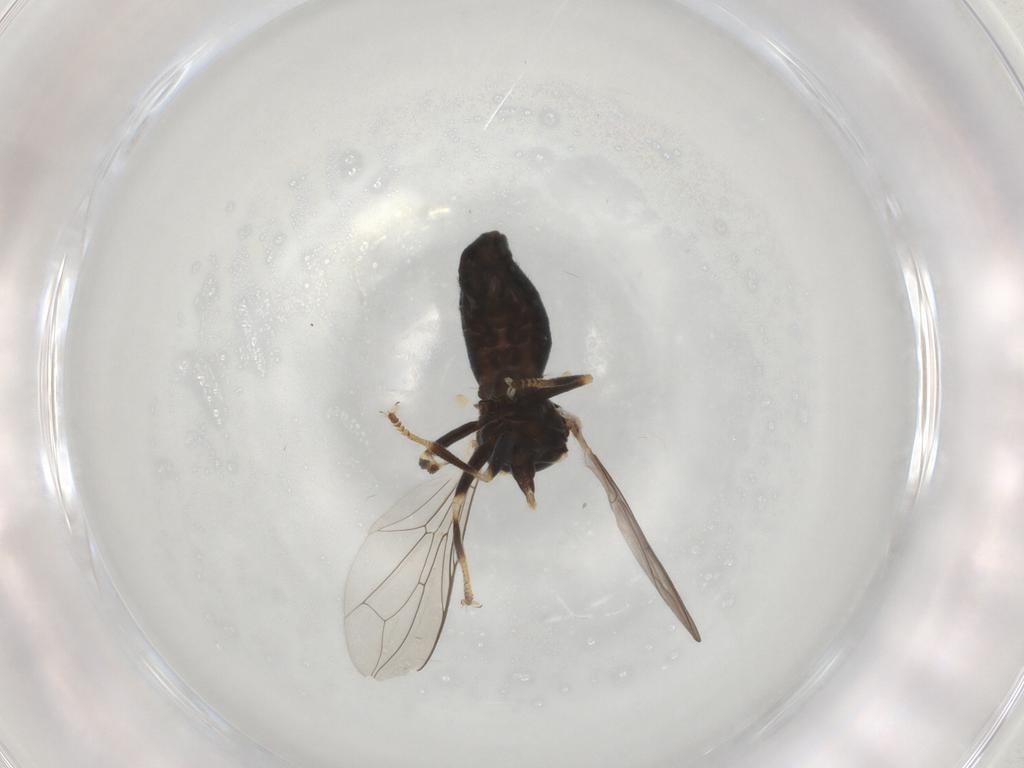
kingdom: Animalia
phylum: Arthropoda
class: Insecta
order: Diptera
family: Pipunculidae
